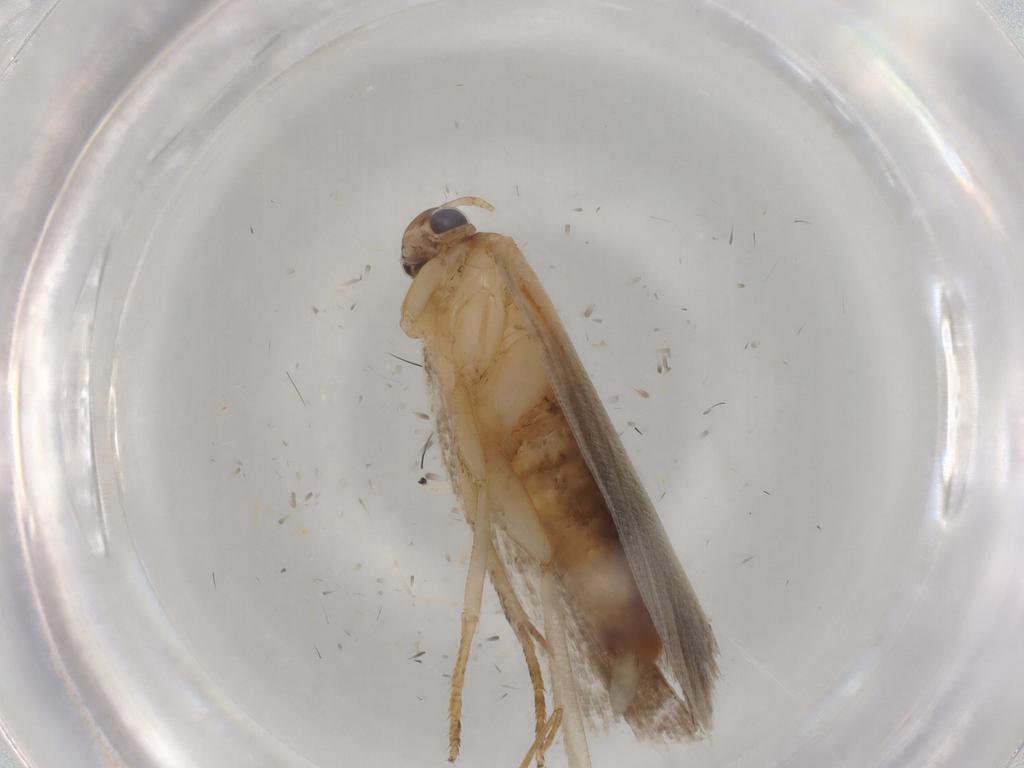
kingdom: Animalia
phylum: Arthropoda
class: Insecta
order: Lepidoptera
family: Gelechiidae
